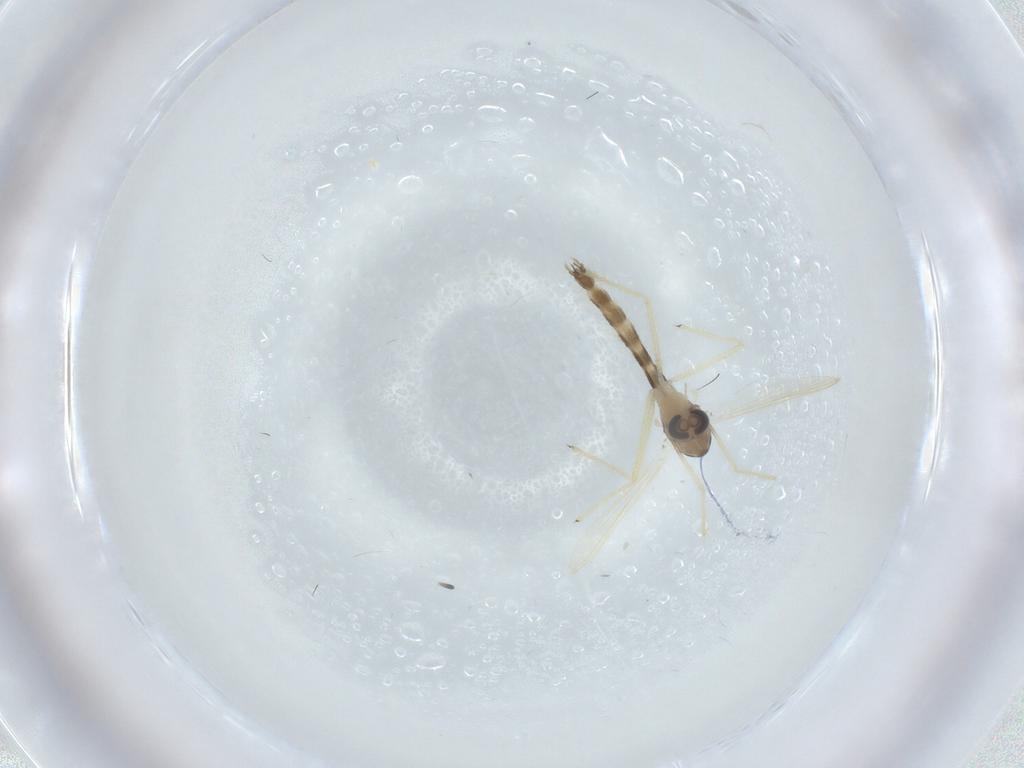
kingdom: Animalia
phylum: Arthropoda
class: Insecta
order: Diptera
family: Chironomidae
